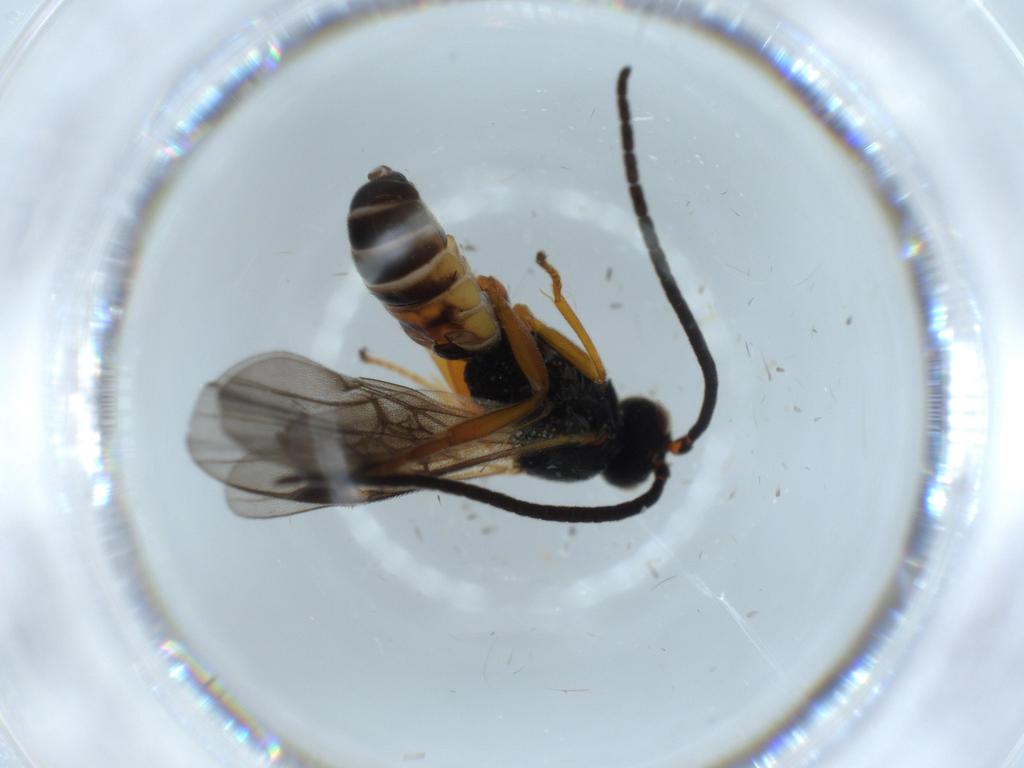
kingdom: Animalia
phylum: Arthropoda
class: Insecta
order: Hymenoptera
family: Braconidae
